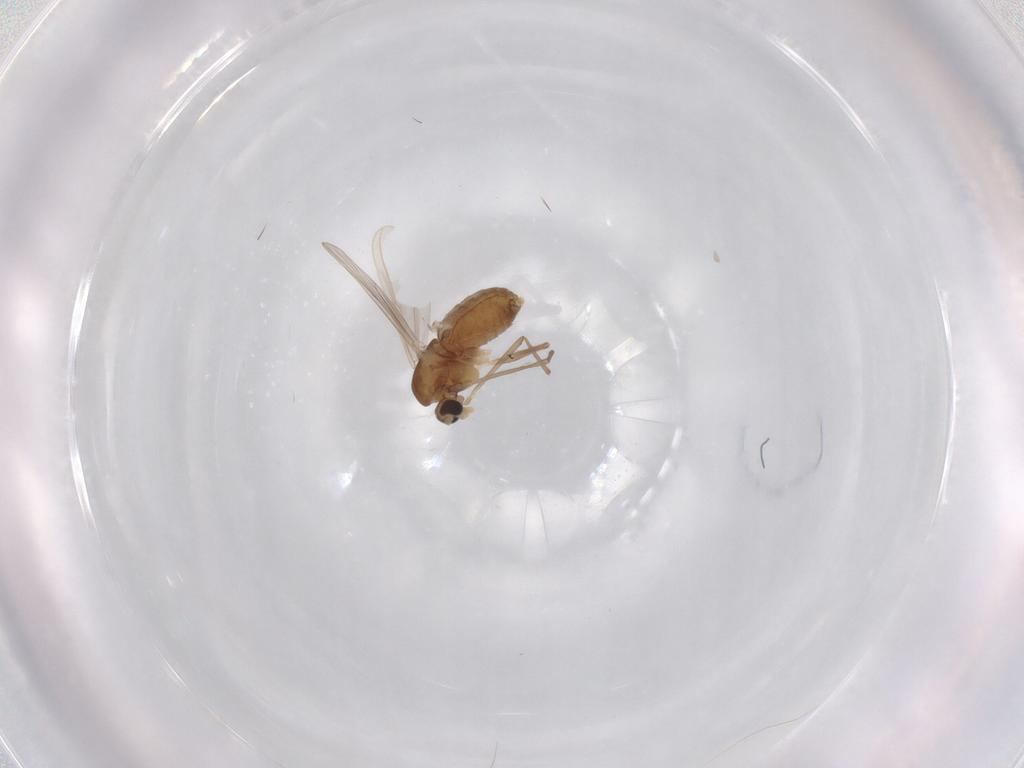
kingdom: Animalia
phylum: Arthropoda
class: Insecta
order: Diptera
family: Chironomidae
